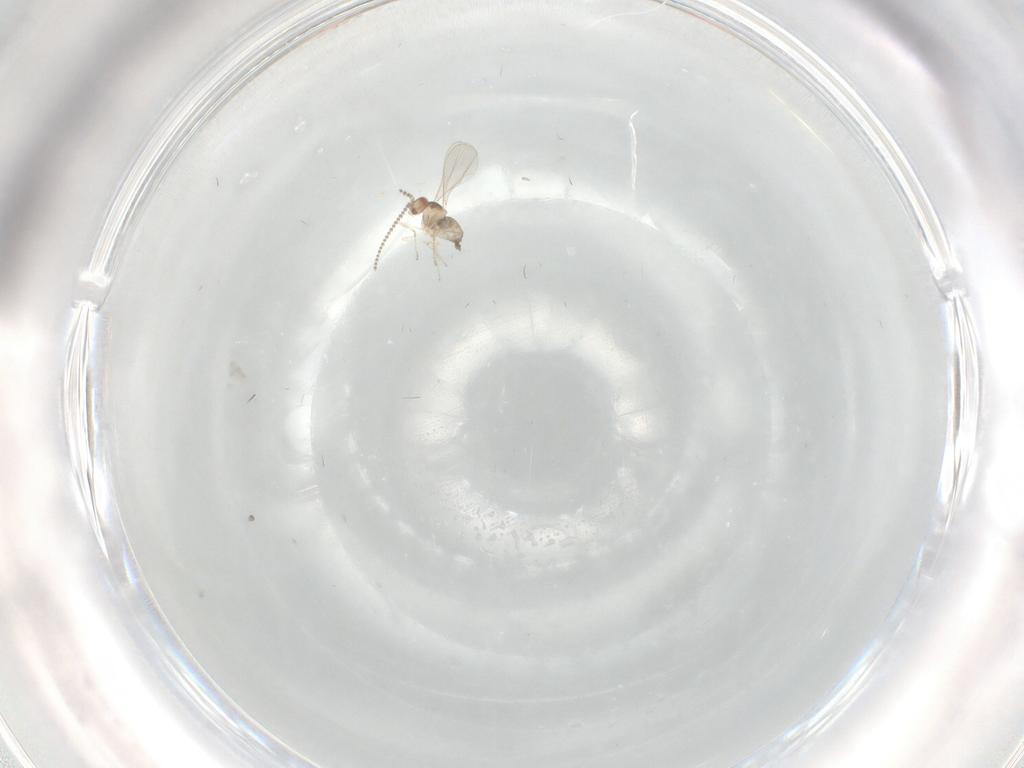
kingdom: Animalia
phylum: Arthropoda
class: Insecta
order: Diptera
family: Cecidomyiidae
